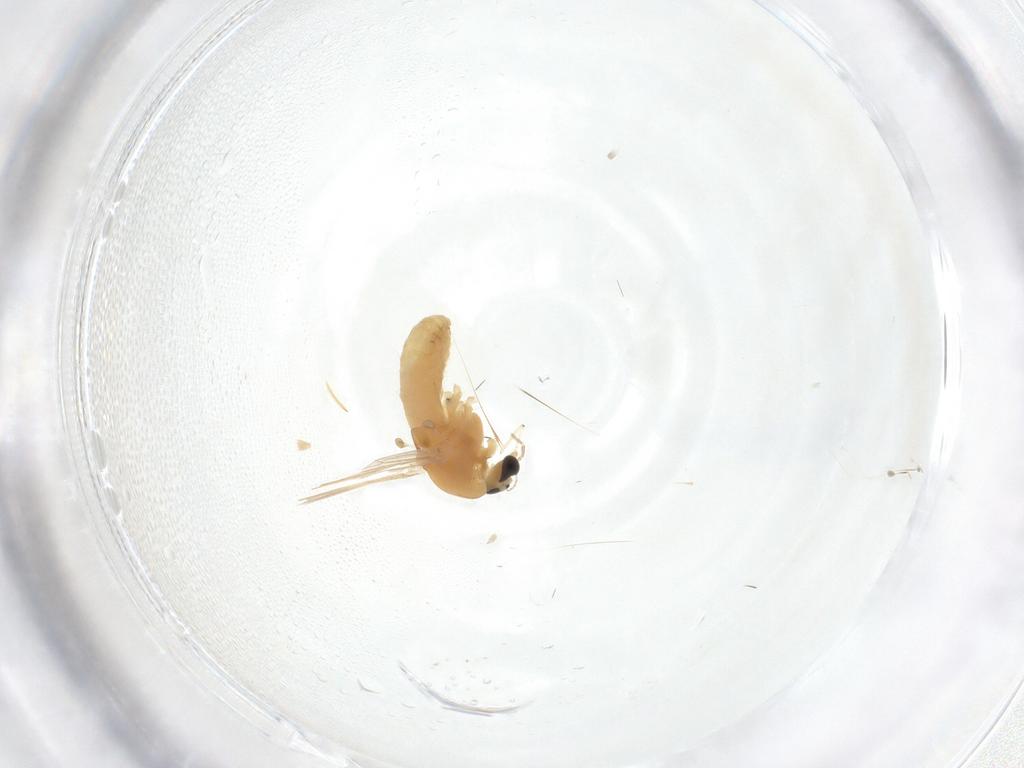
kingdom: Animalia
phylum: Arthropoda
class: Insecta
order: Diptera
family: Chironomidae
